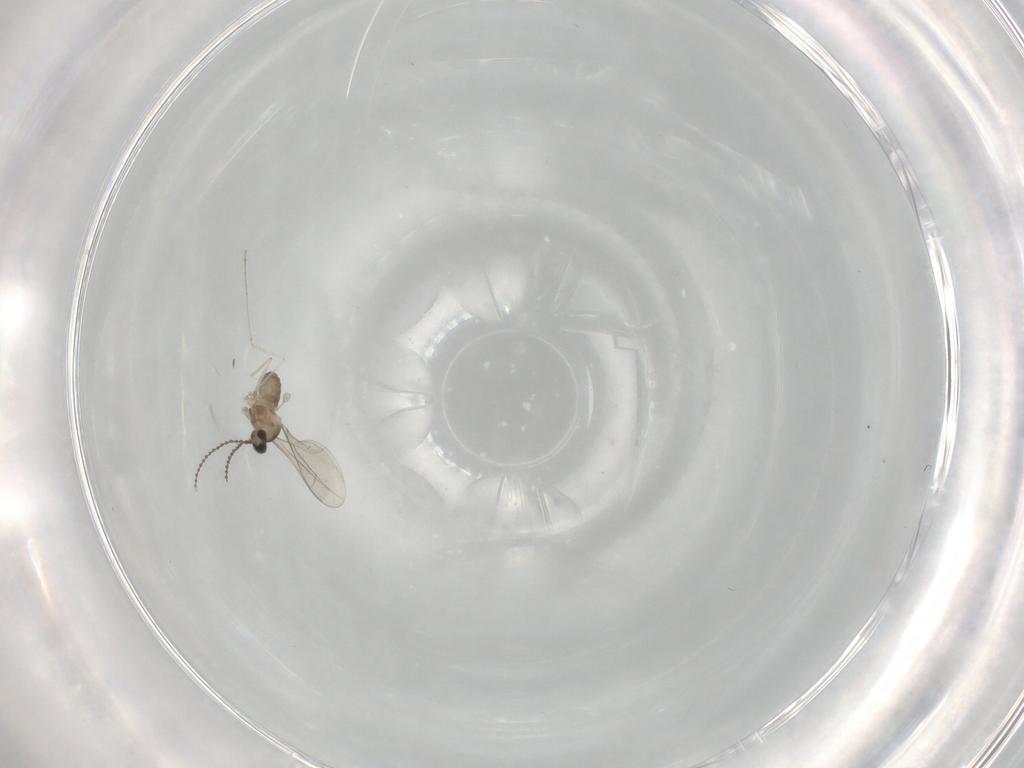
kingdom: Animalia
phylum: Arthropoda
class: Insecta
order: Diptera
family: Cecidomyiidae
